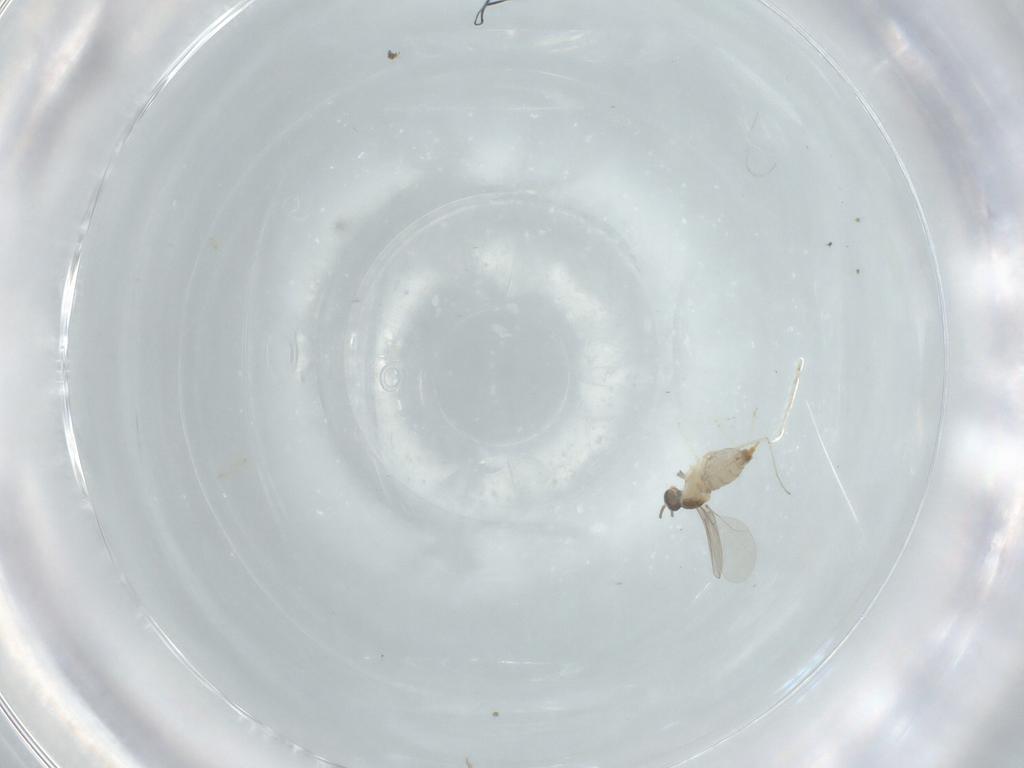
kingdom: Animalia
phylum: Arthropoda
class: Insecta
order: Diptera
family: Cecidomyiidae
